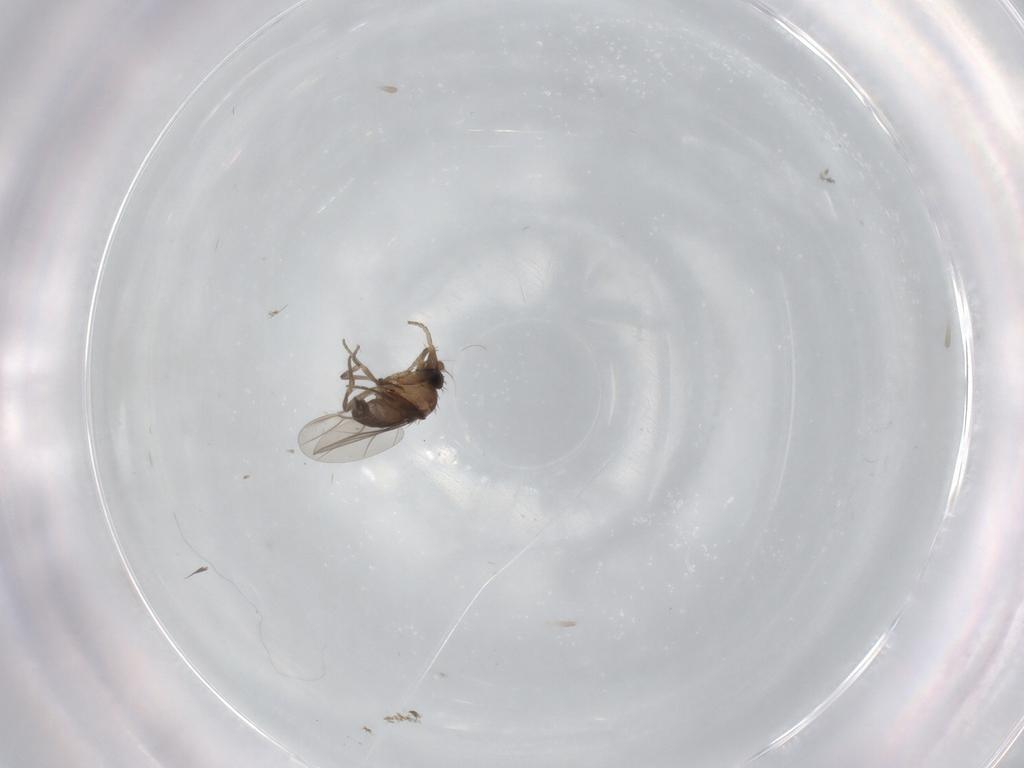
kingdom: Animalia
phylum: Arthropoda
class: Insecta
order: Diptera
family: Phoridae
